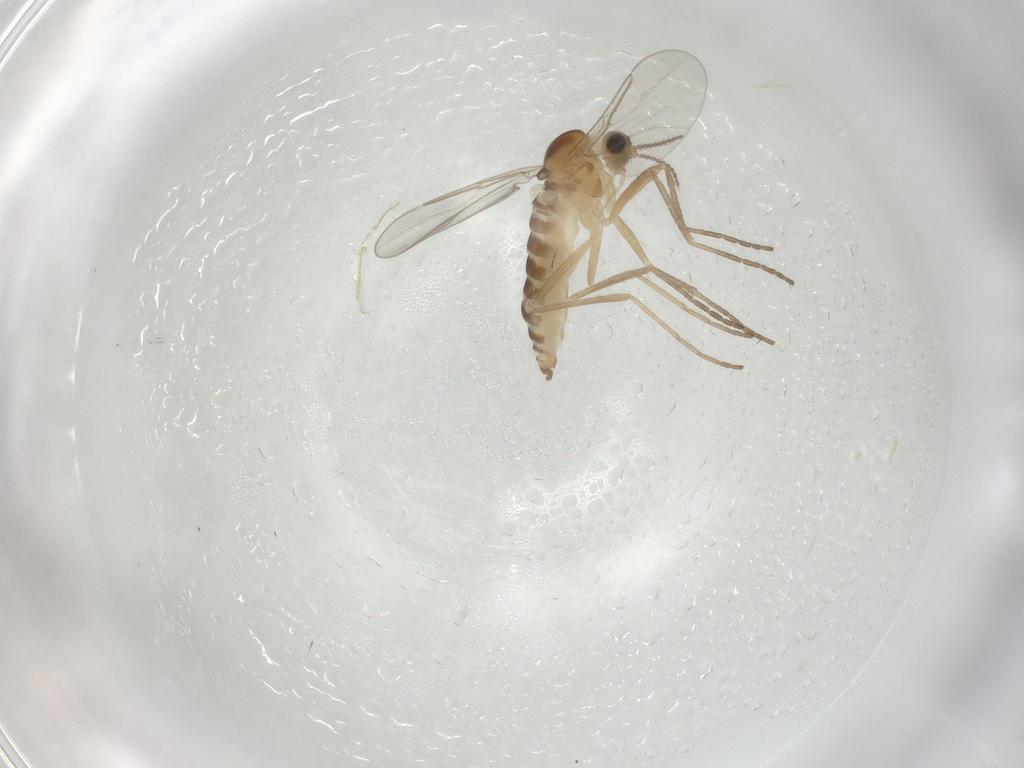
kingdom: Animalia
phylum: Arthropoda
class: Insecta
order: Diptera
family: Cecidomyiidae
